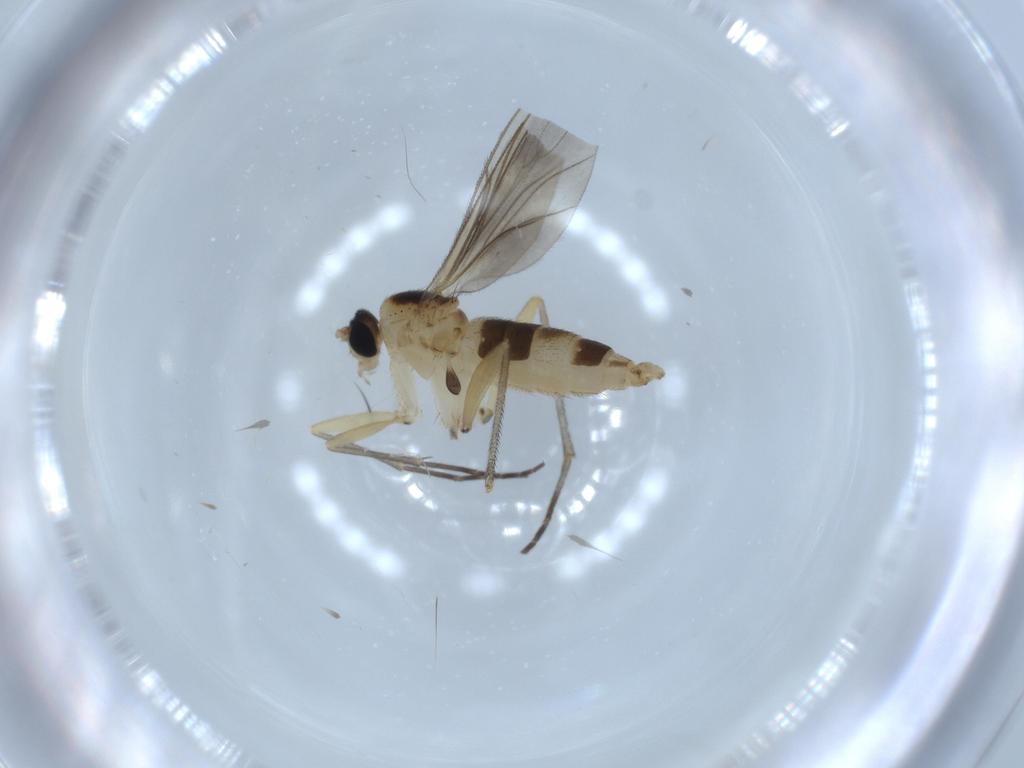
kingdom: Animalia
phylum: Arthropoda
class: Insecta
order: Diptera
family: Sciaridae
